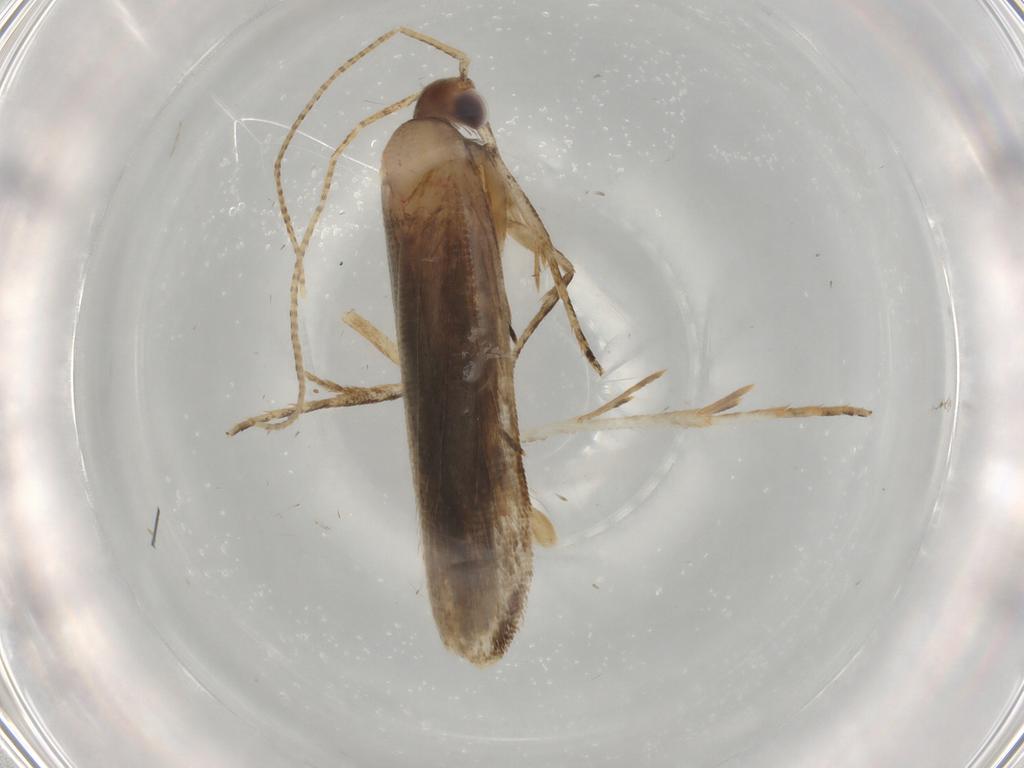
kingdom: Animalia
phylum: Arthropoda
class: Insecta
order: Lepidoptera
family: Gelechiidae
